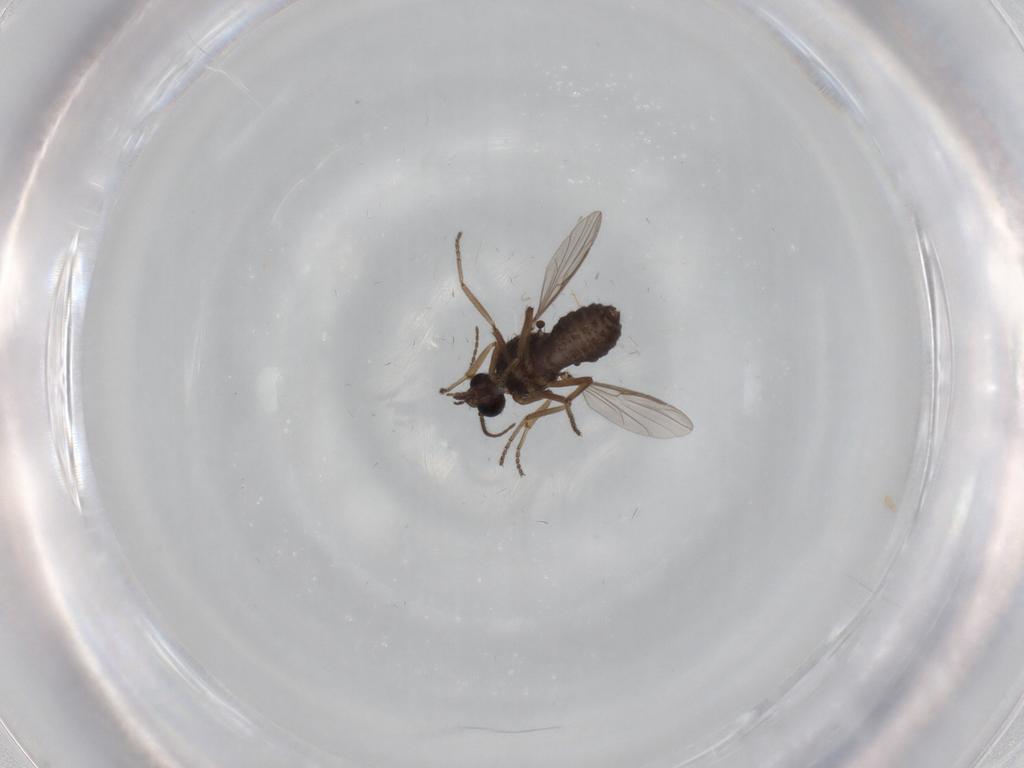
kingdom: Animalia
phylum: Arthropoda
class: Insecta
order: Diptera
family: Ceratopogonidae
